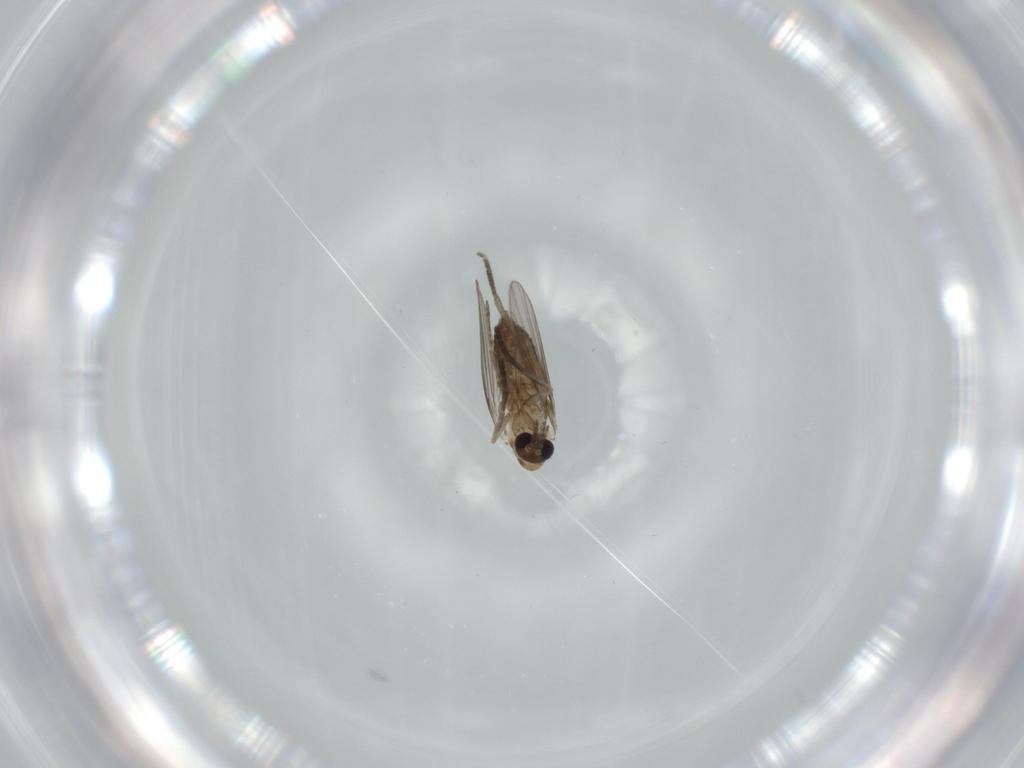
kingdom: Animalia
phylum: Arthropoda
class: Insecta
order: Diptera
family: Cecidomyiidae
